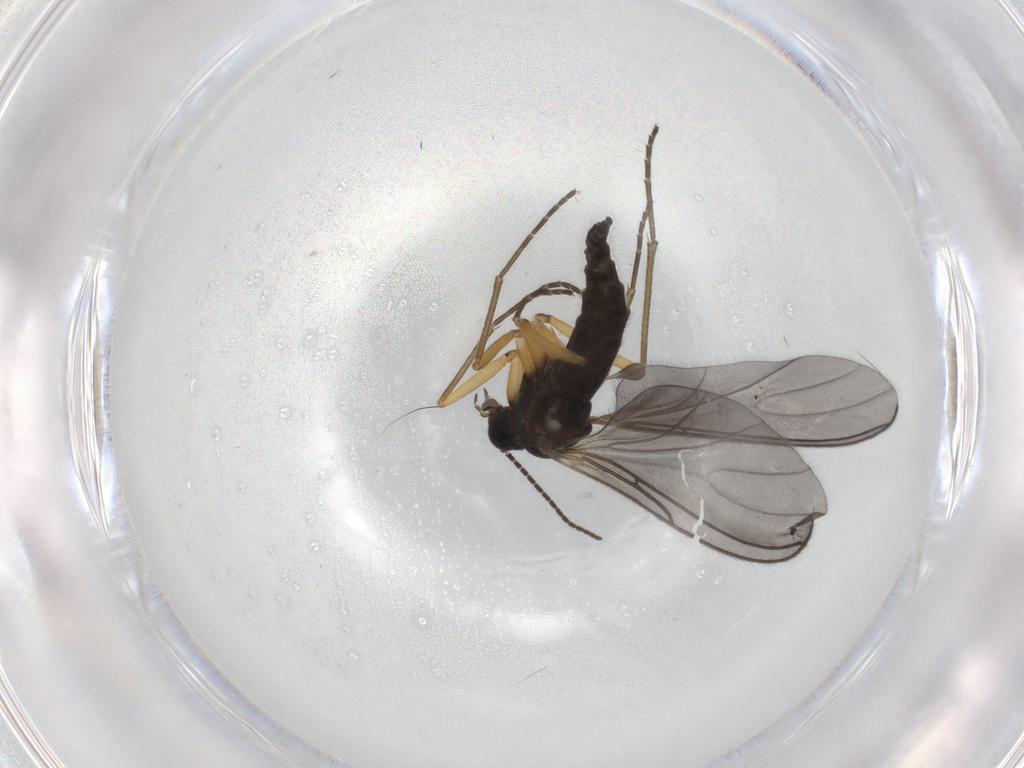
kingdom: Animalia
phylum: Arthropoda
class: Insecta
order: Diptera
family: Sciaridae
